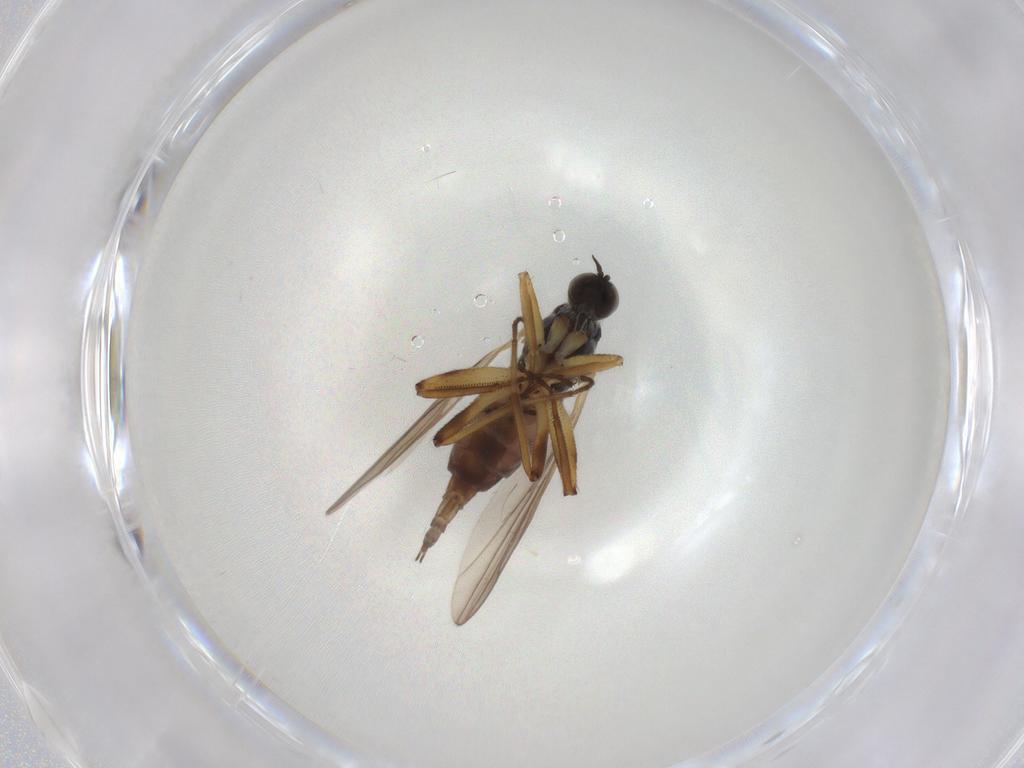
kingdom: Animalia
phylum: Arthropoda
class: Insecta
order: Diptera
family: Hybotidae
